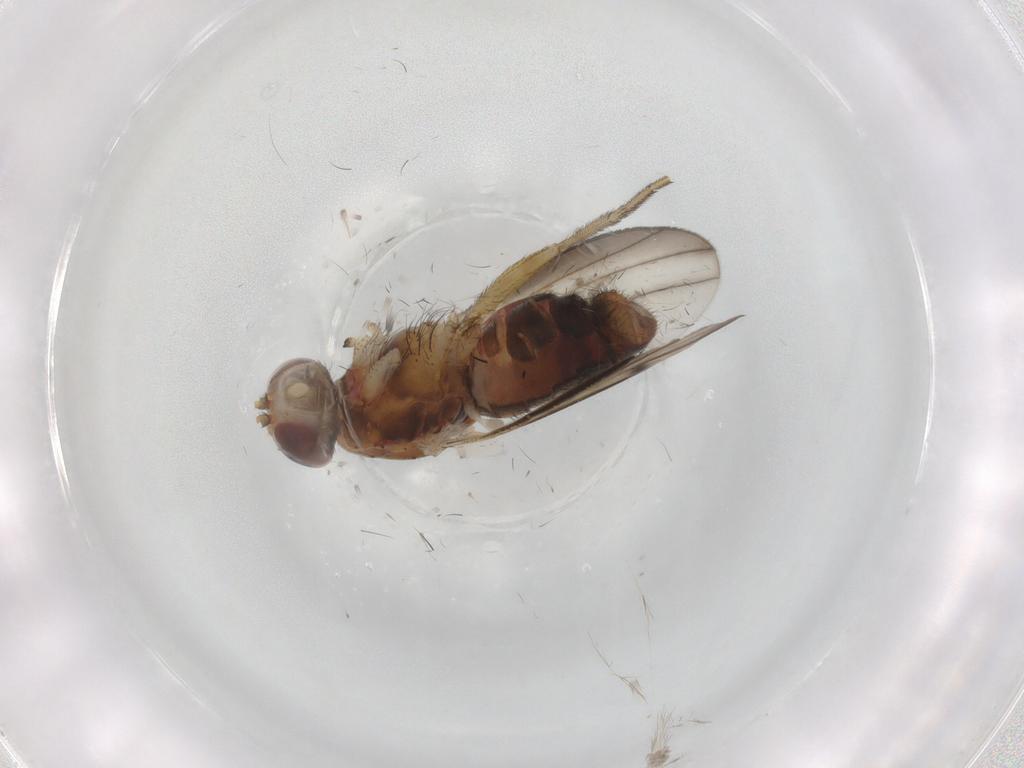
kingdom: Animalia
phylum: Arthropoda
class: Insecta
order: Diptera
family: Heleomyzidae
